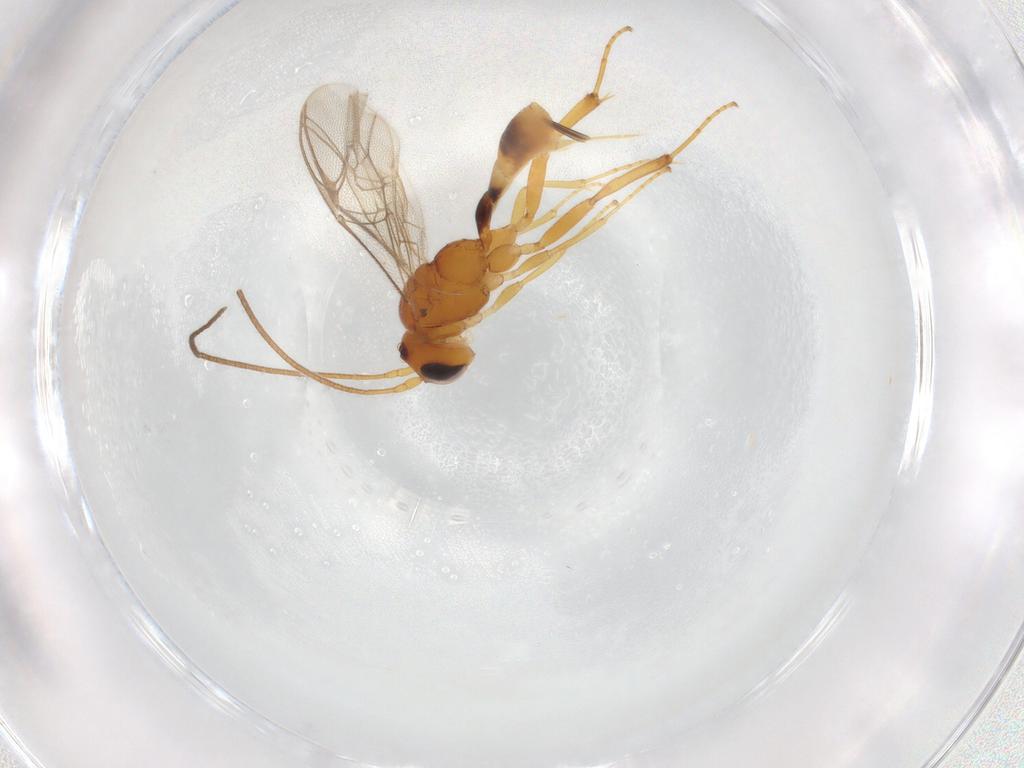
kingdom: Animalia
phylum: Arthropoda
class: Insecta
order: Hymenoptera
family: Ichneumonidae
